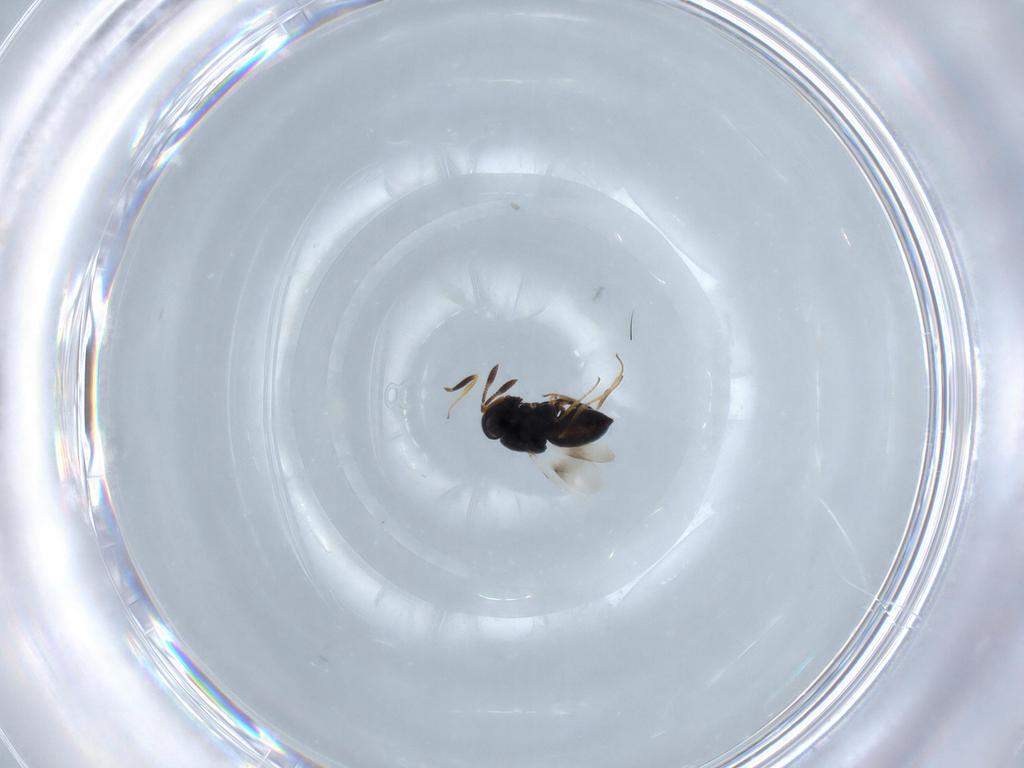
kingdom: Animalia
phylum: Arthropoda
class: Insecta
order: Hymenoptera
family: Scelionidae
